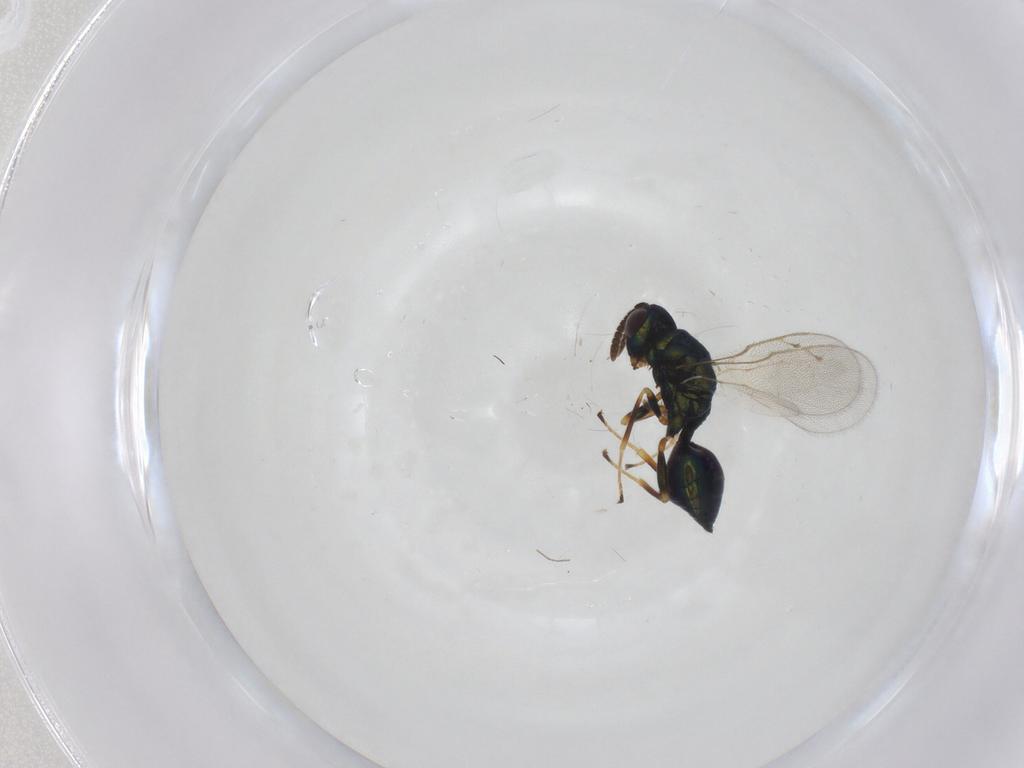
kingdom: Animalia
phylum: Arthropoda
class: Insecta
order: Hymenoptera
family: Pteromalidae
